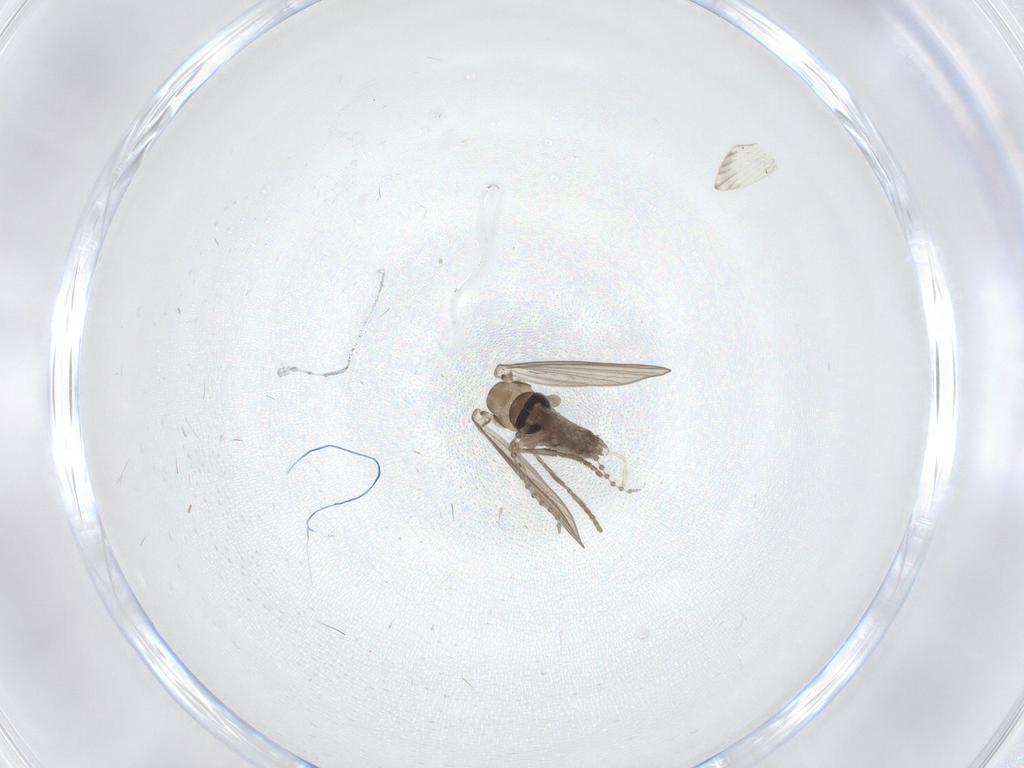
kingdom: Animalia
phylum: Arthropoda
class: Insecta
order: Diptera
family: Psychodidae
